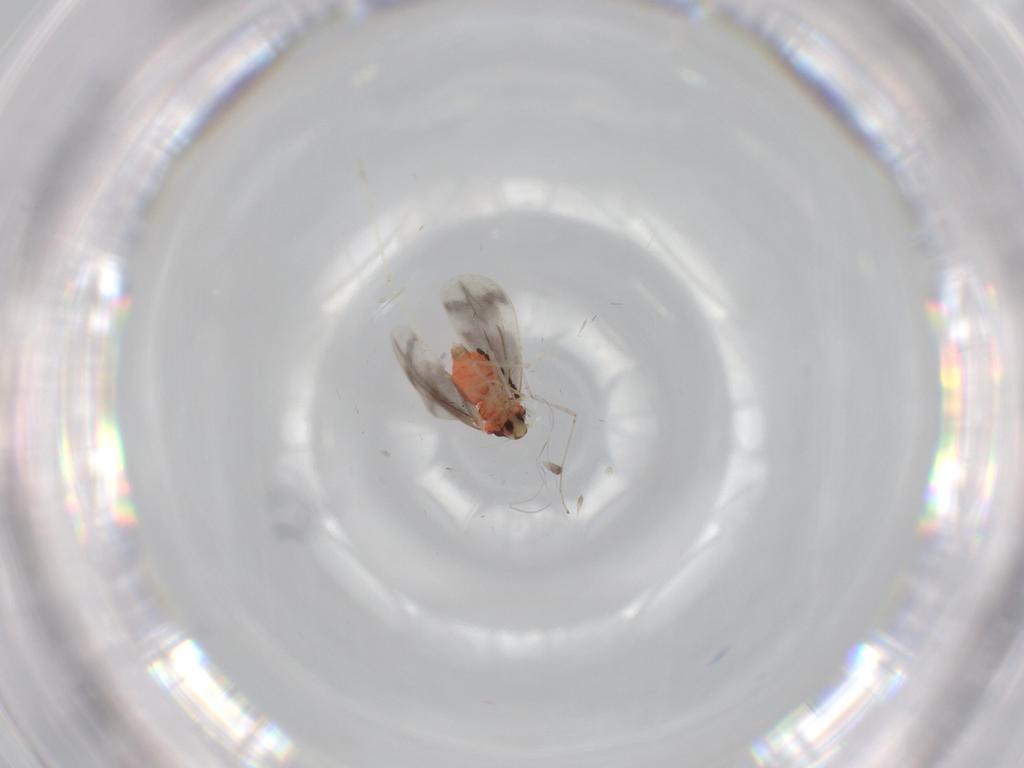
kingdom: Animalia
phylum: Arthropoda
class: Insecta
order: Hemiptera
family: Aleyrodidae
